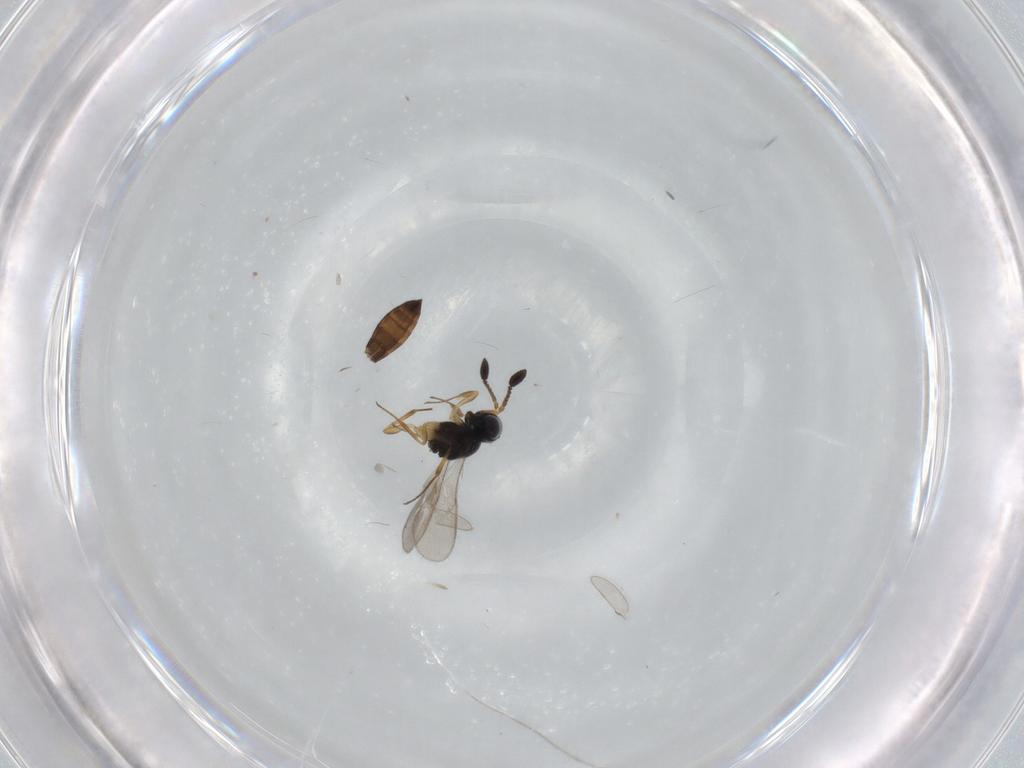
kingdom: Animalia
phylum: Arthropoda
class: Insecta
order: Hymenoptera
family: Scelionidae
